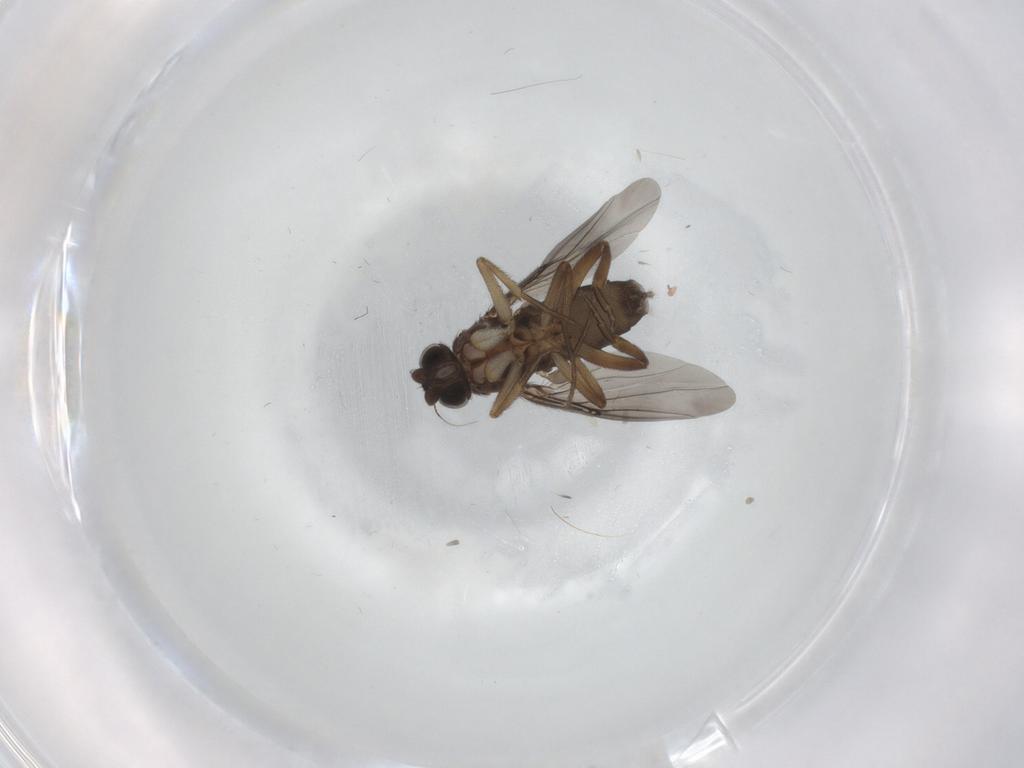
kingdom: Animalia
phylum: Arthropoda
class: Insecta
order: Diptera
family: Phoridae
